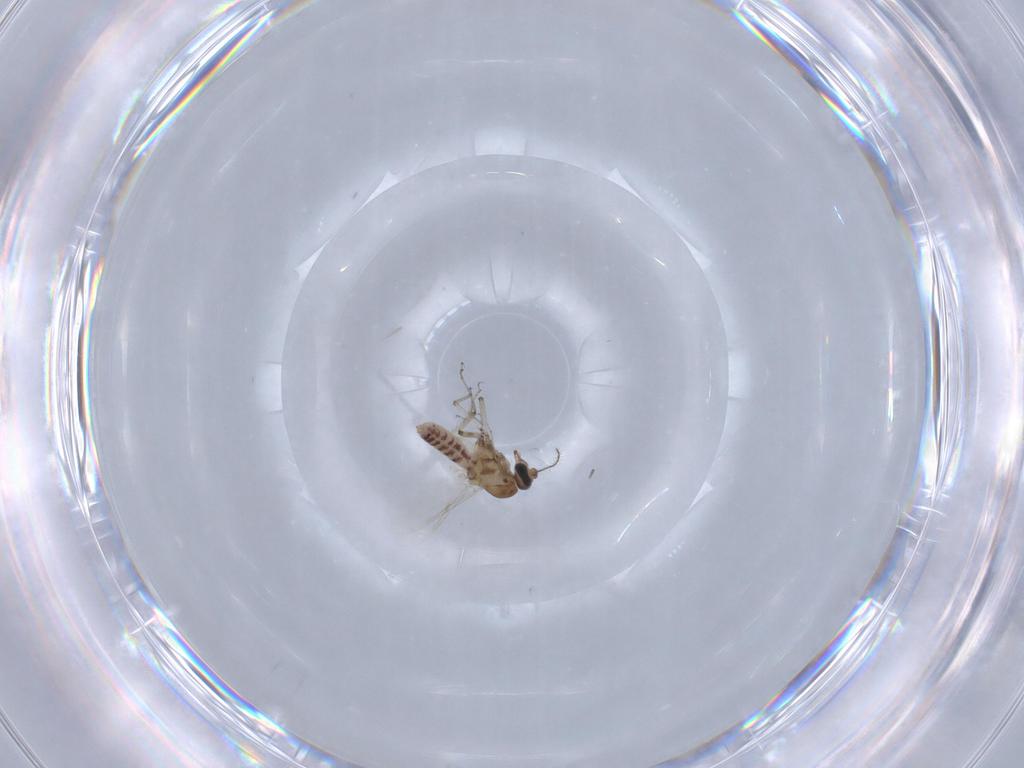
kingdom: Animalia
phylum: Arthropoda
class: Insecta
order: Diptera
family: Ceratopogonidae
